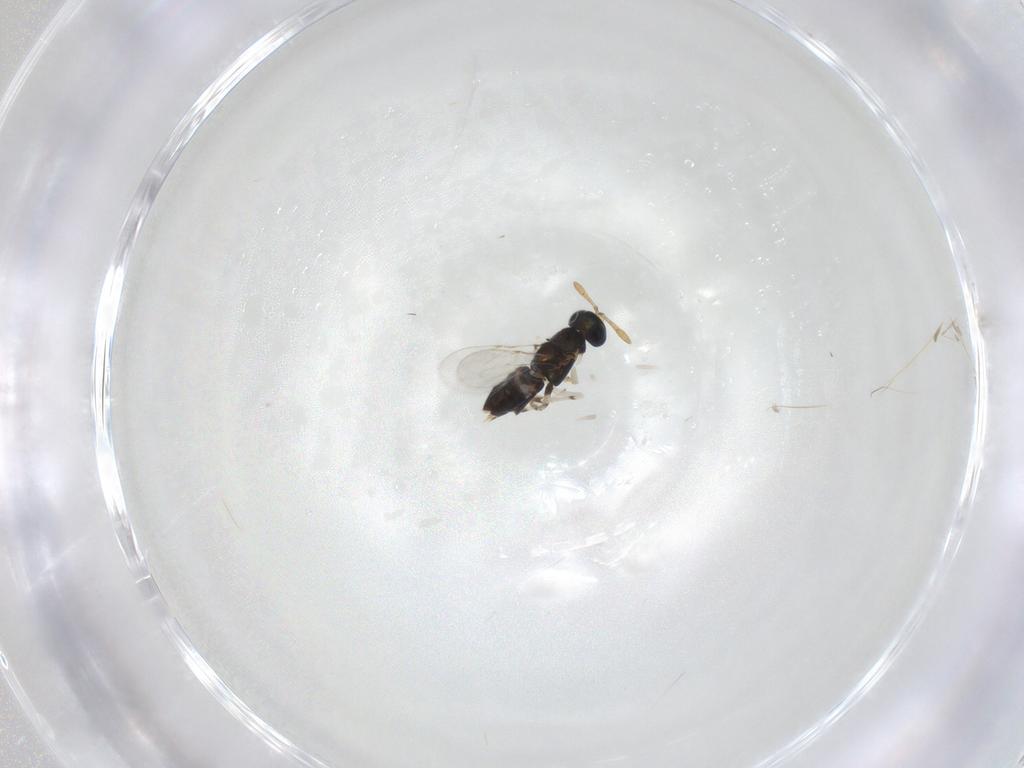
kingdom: Animalia
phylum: Arthropoda
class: Insecta
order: Hymenoptera
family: Encyrtidae
